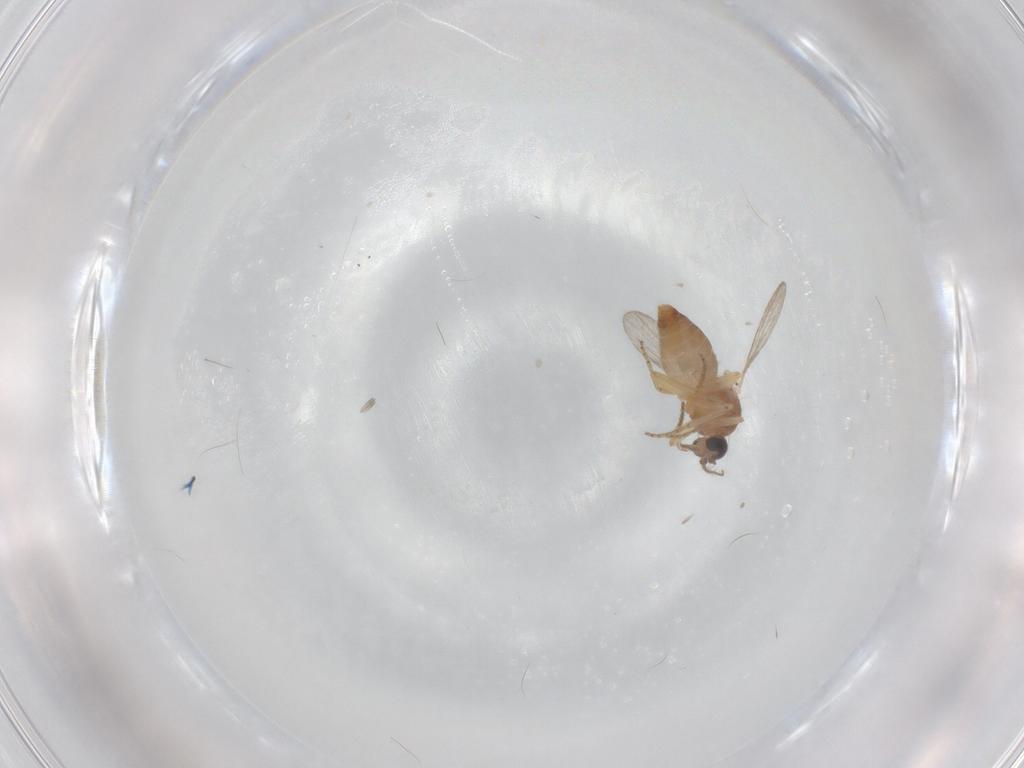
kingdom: Animalia
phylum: Arthropoda
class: Insecta
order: Diptera
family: Ceratopogonidae
